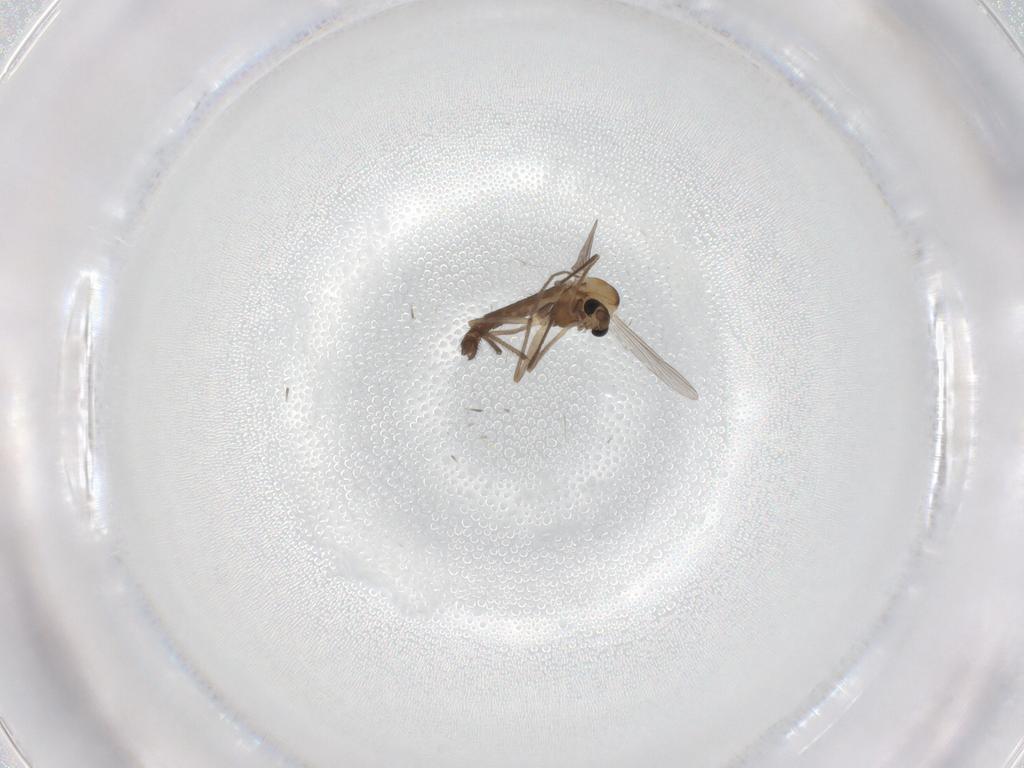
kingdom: Animalia
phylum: Arthropoda
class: Insecta
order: Diptera
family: Chironomidae
